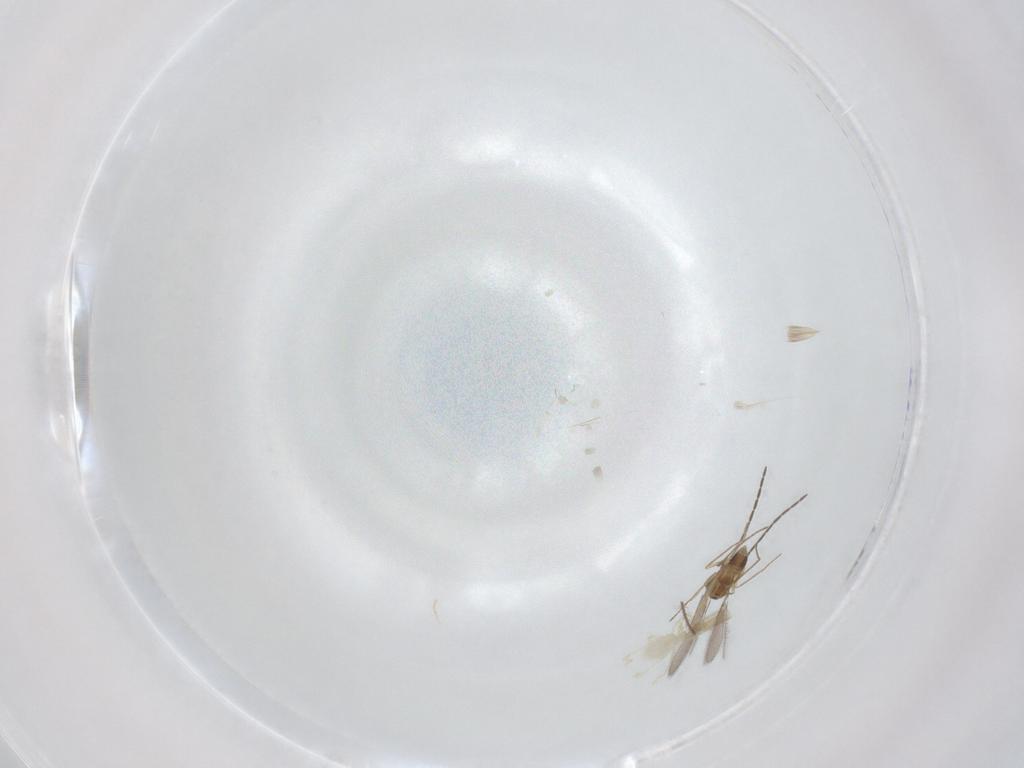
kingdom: Animalia
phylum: Arthropoda
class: Insecta
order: Hymenoptera
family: Mymaridae
